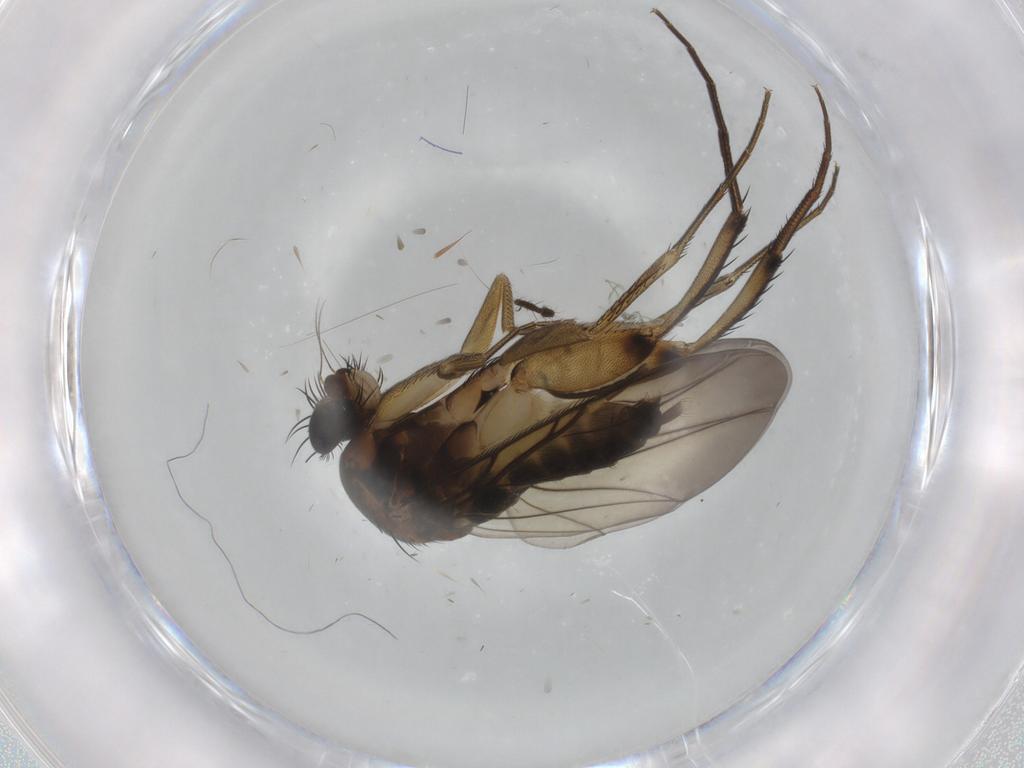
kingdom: Animalia
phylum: Arthropoda
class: Insecta
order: Diptera
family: Phoridae
